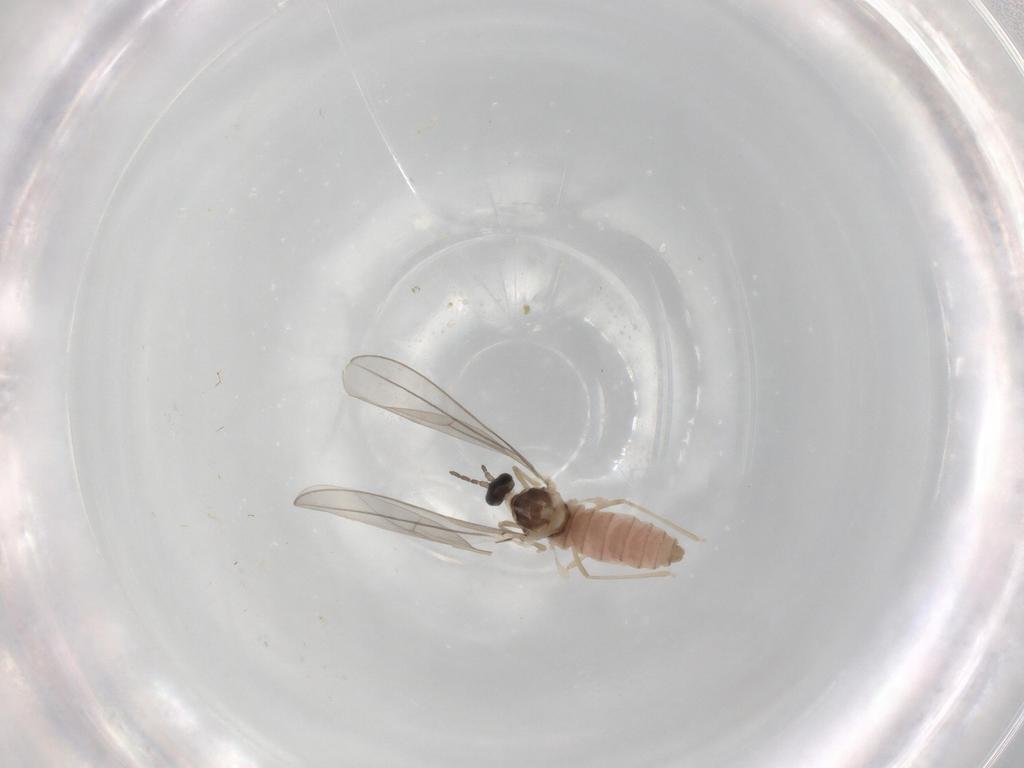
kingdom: Animalia
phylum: Arthropoda
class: Insecta
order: Diptera
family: Cecidomyiidae
